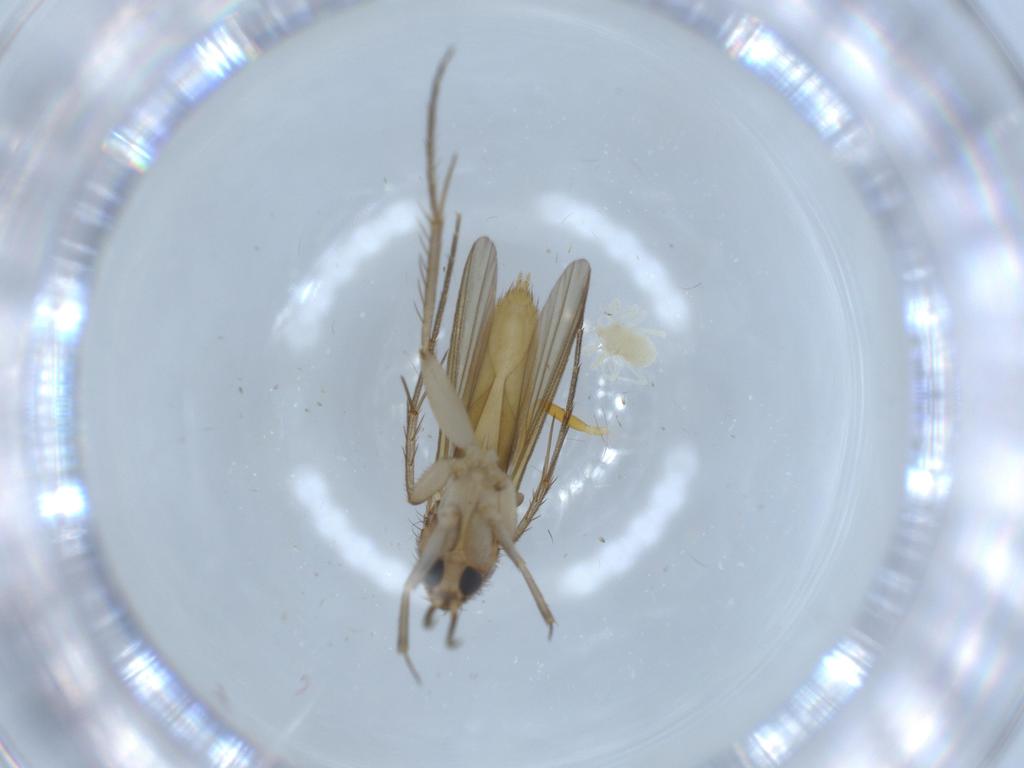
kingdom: Animalia
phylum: Arthropoda
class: Insecta
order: Diptera
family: Mycetophilidae
